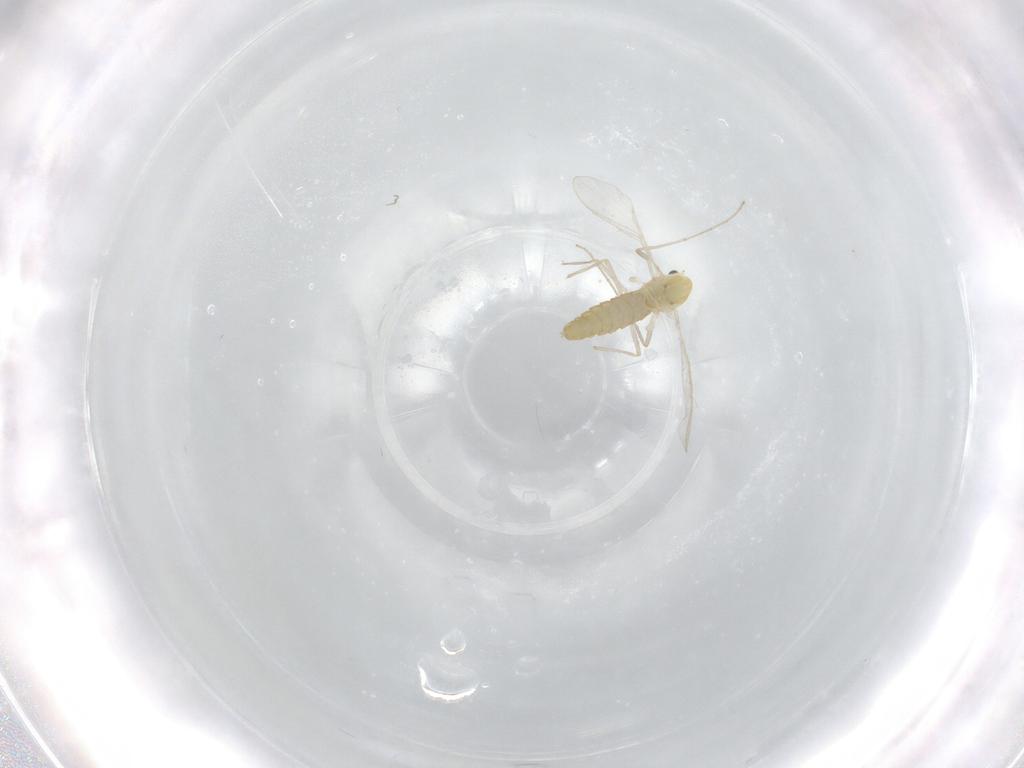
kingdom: Animalia
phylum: Arthropoda
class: Insecta
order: Diptera
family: Chironomidae
